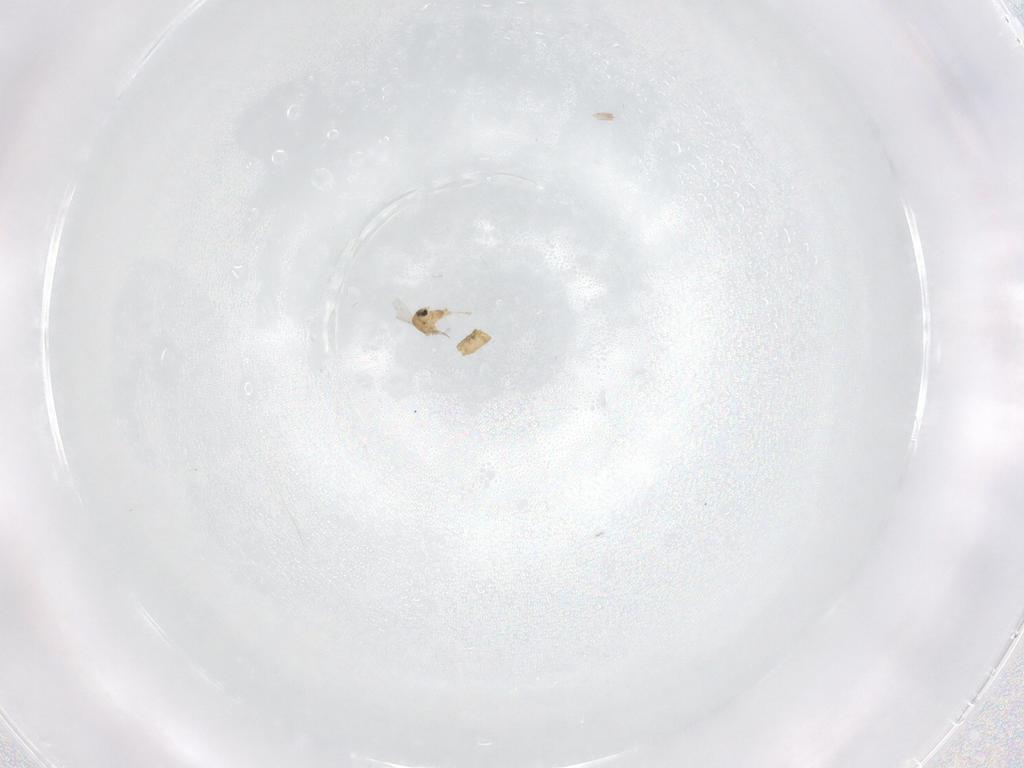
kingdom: Animalia
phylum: Arthropoda
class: Insecta
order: Diptera
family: Chironomidae
